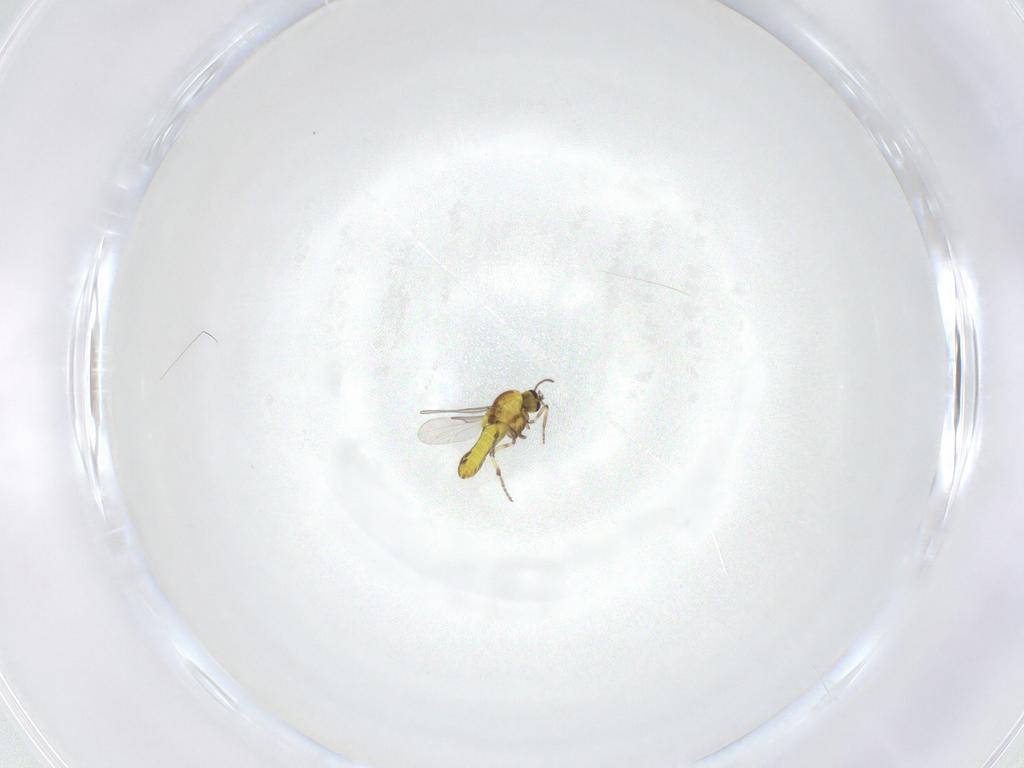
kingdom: Animalia
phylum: Arthropoda
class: Insecta
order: Diptera
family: Ceratopogonidae
